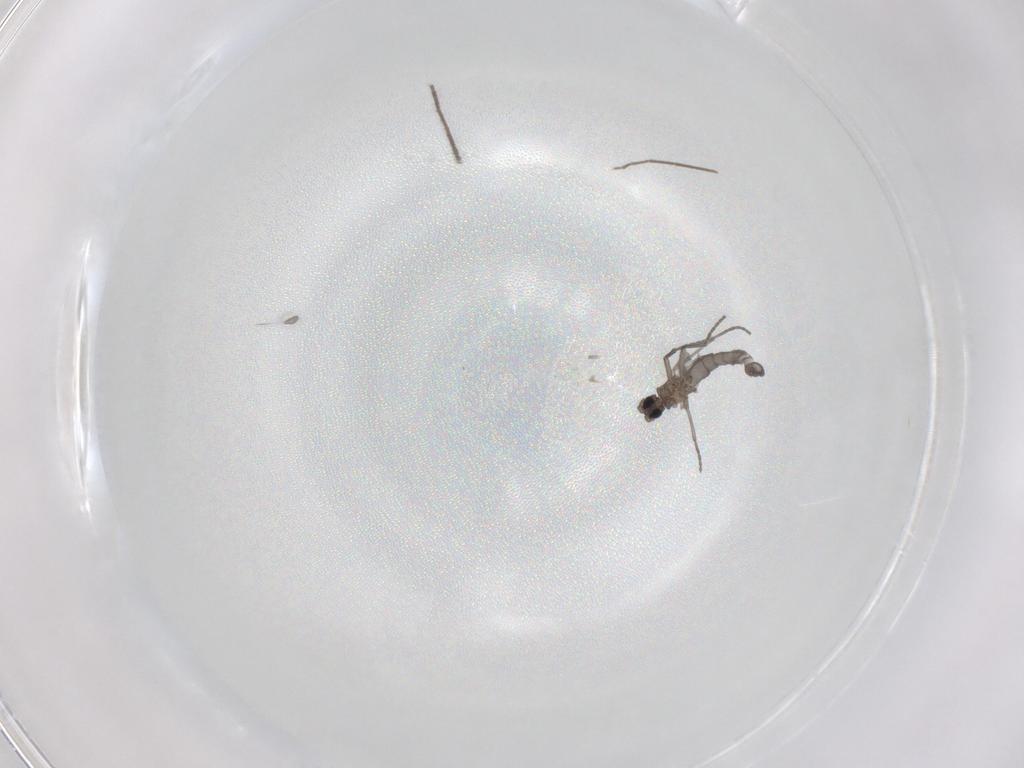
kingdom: Animalia
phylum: Arthropoda
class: Insecta
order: Diptera
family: Sciaridae
